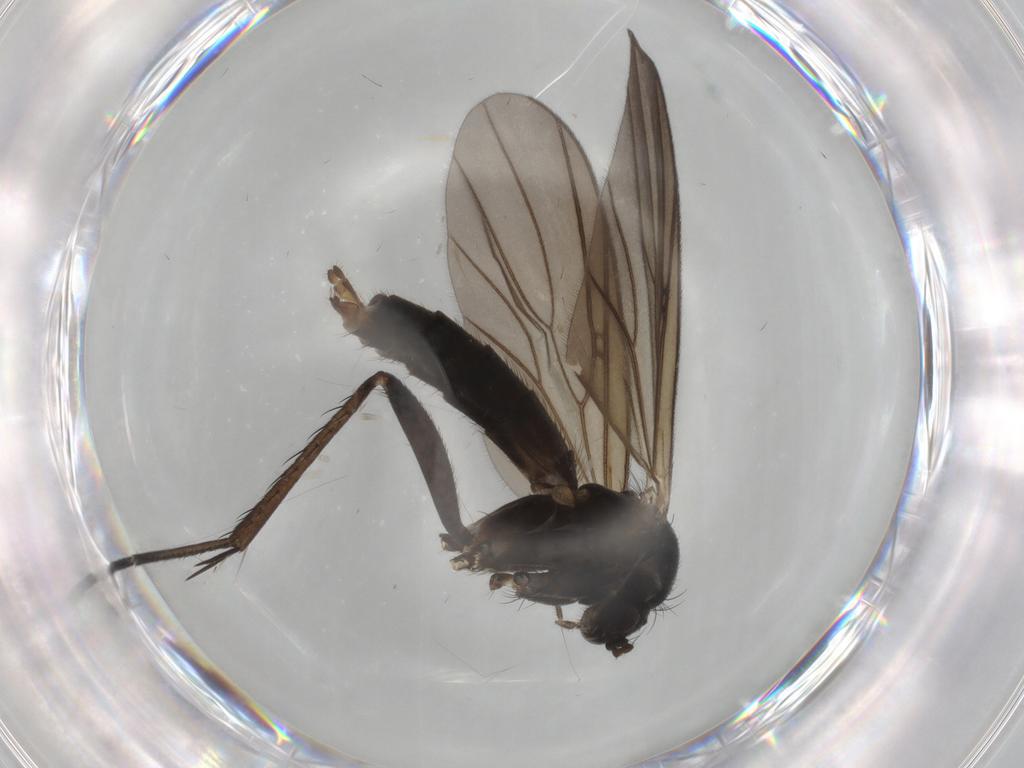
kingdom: Animalia
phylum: Arthropoda
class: Insecta
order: Diptera
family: Mycetophilidae
